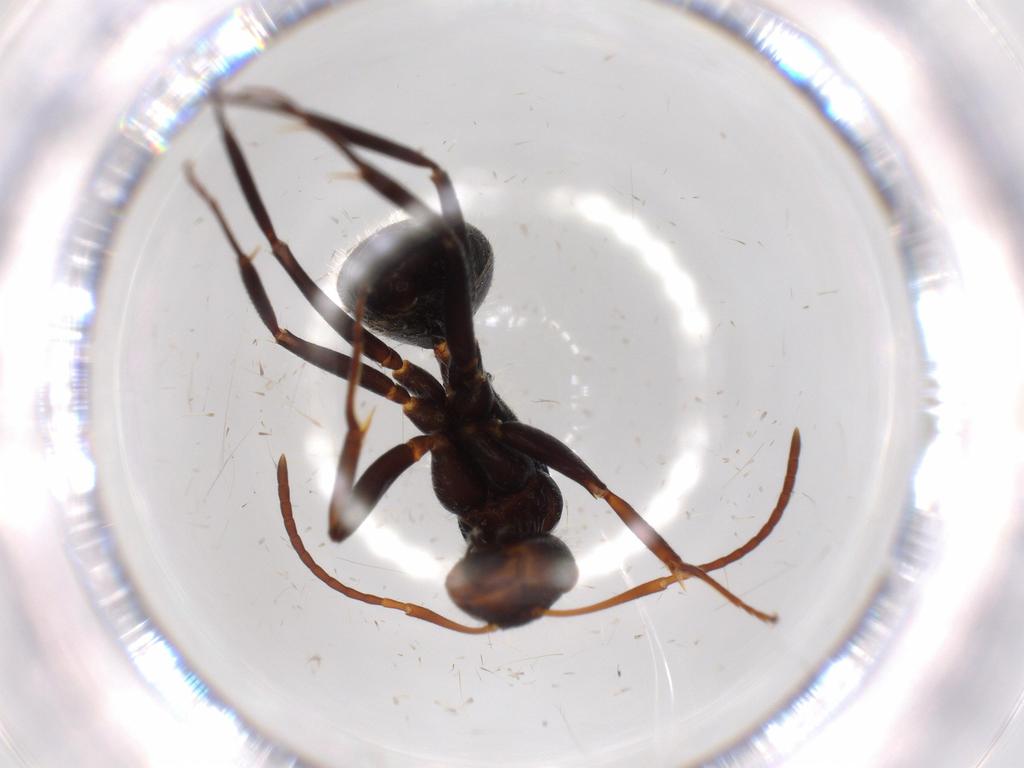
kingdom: Animalia
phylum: Arthropoda
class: Insecta
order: Hymenoptera
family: Formicidae
